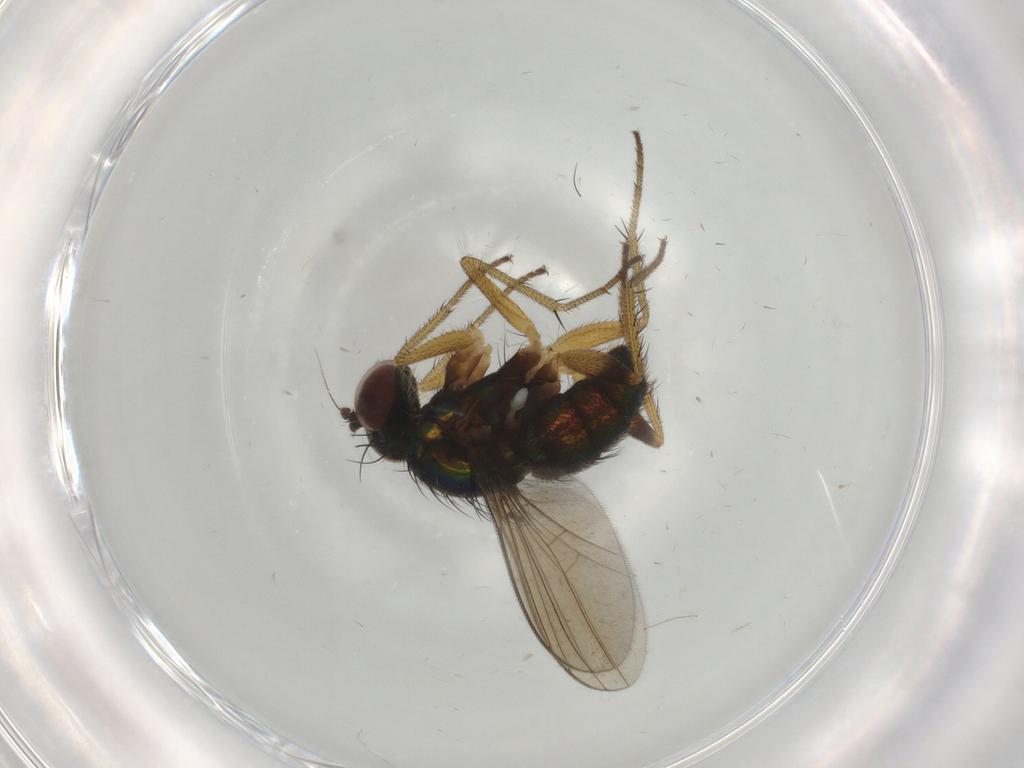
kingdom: Animalia
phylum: Arthropoda
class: Insecta
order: Diptera
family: Dolichopodidae
